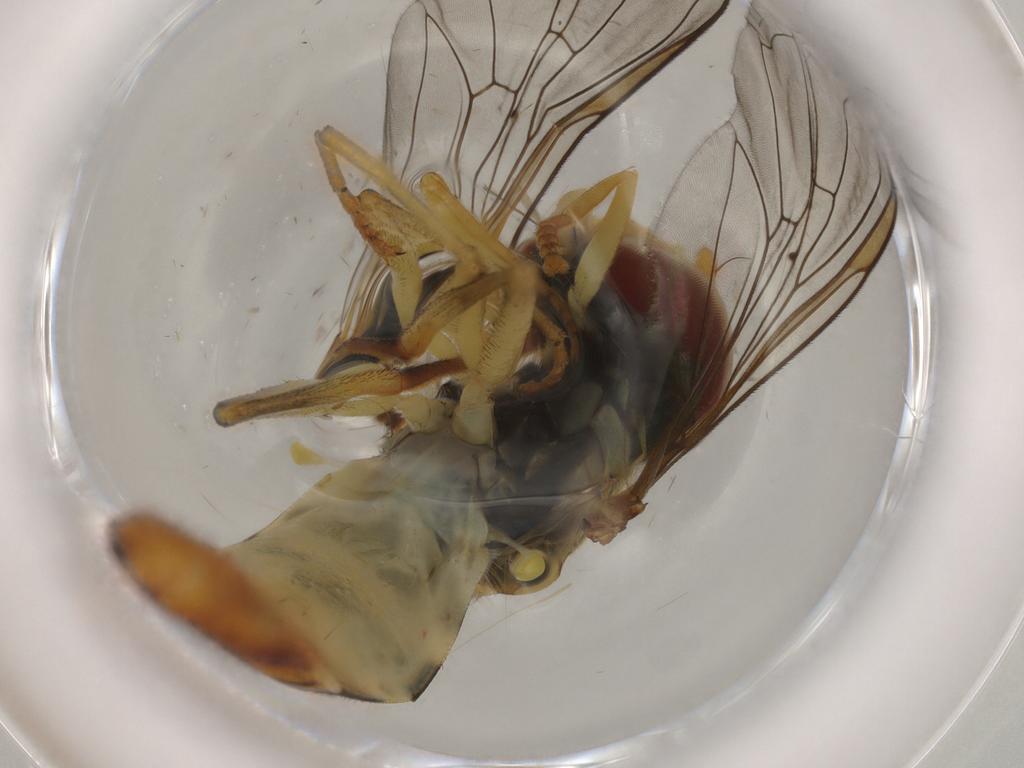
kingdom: Animalia
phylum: Arthropoda
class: Insecta
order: Diptera
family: Syrphidae
